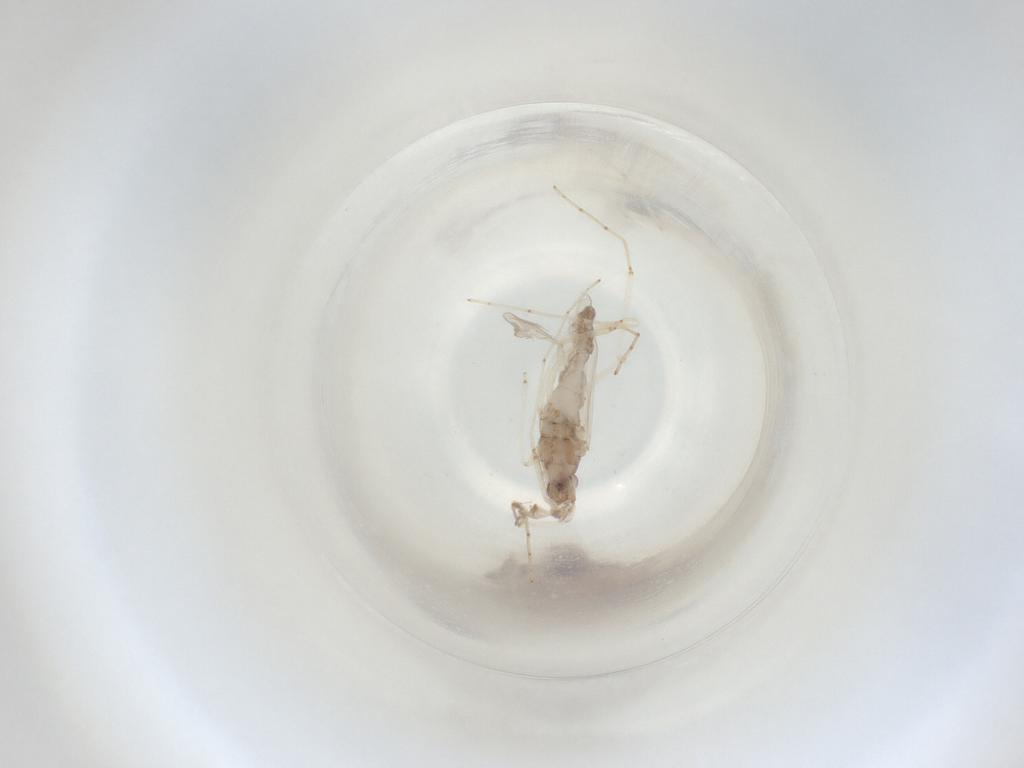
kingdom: Animalia
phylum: Arthropoda
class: Insecta
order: Diptera
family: Cecidomyiidae
